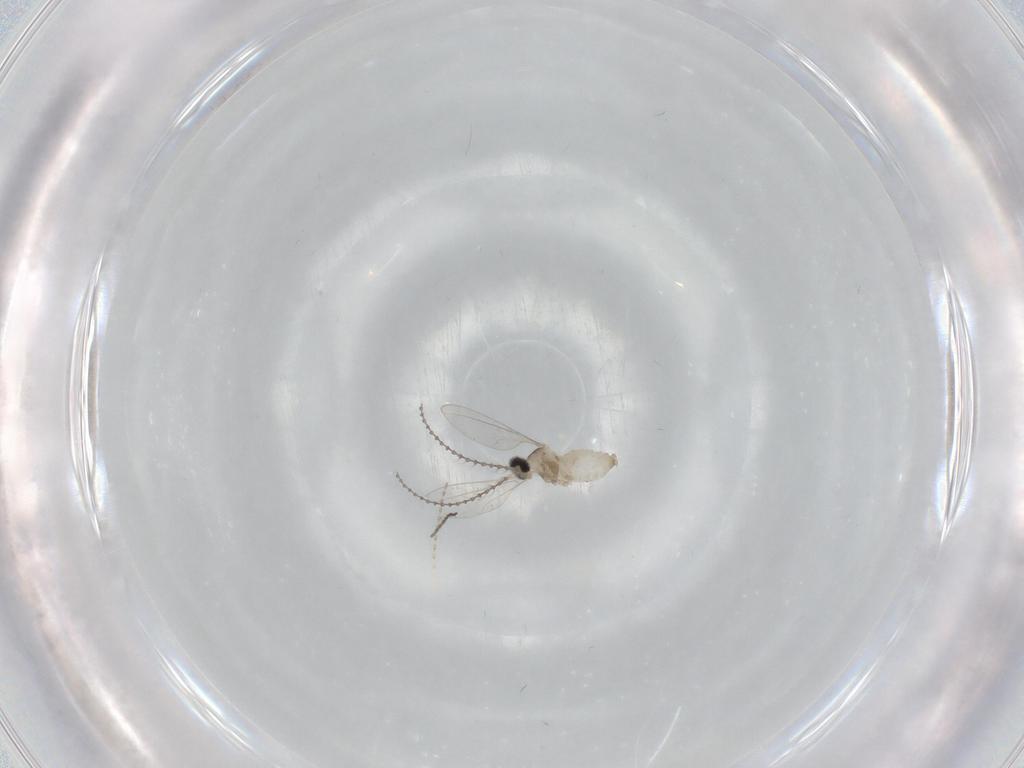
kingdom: Animalia
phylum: Arthropoda
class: Insecta
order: Diptera
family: Cecidomyiidae
